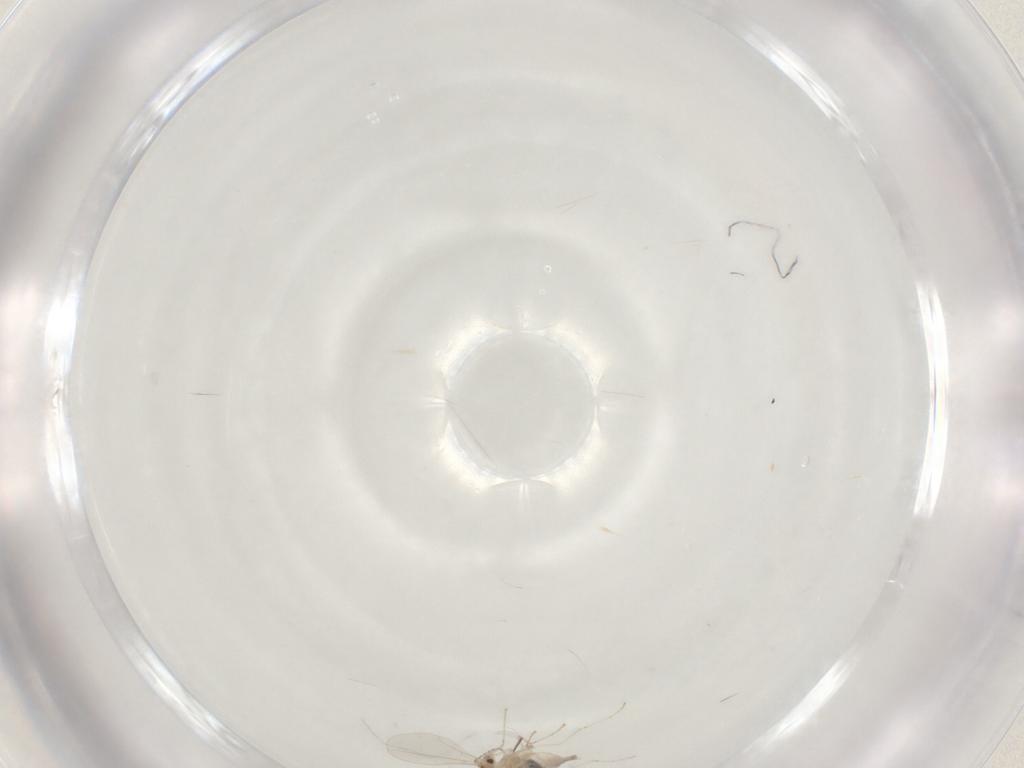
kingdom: Animalia
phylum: Arthropoda
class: Insecta
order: Diptera
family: Cecidomyiidae
